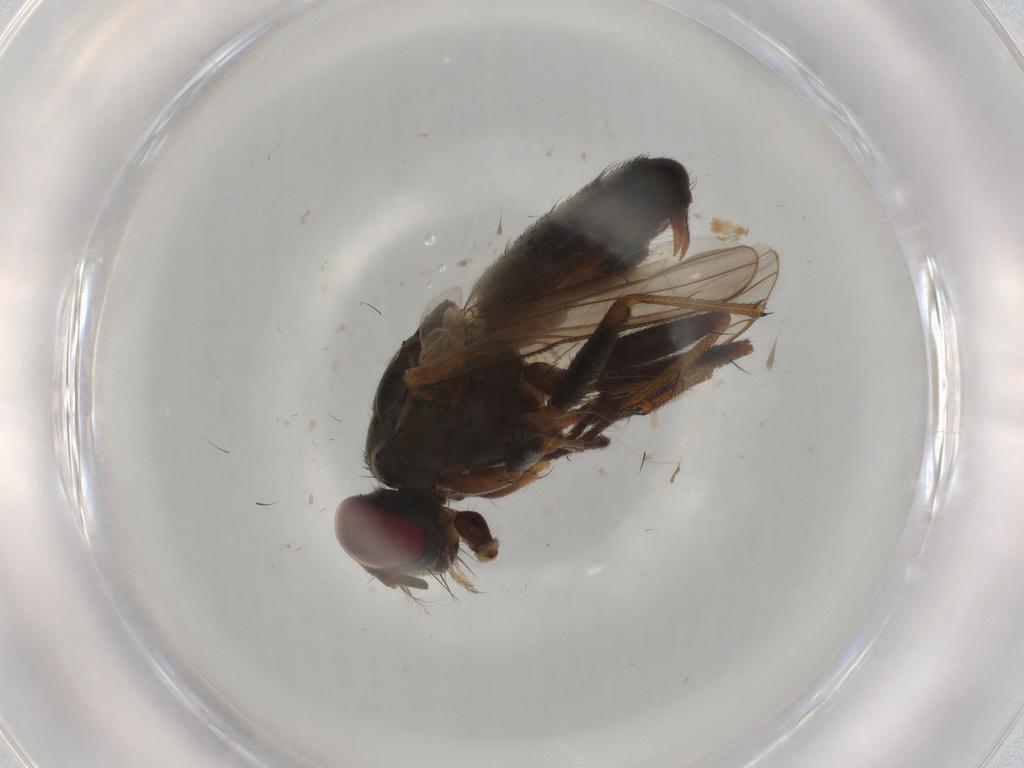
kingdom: Animalia
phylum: Arthropoda
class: Insecta
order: Diptera
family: Muscidae
